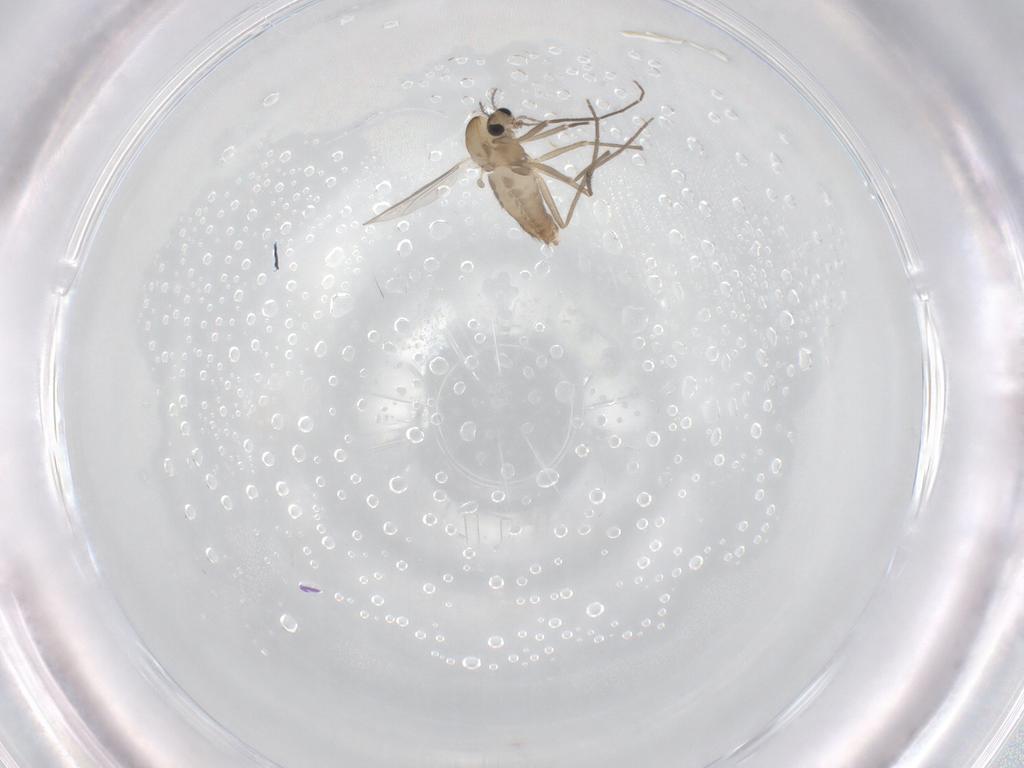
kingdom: Animalia
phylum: Arthropoda
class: Insecta
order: Diptera
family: Chironomidae
